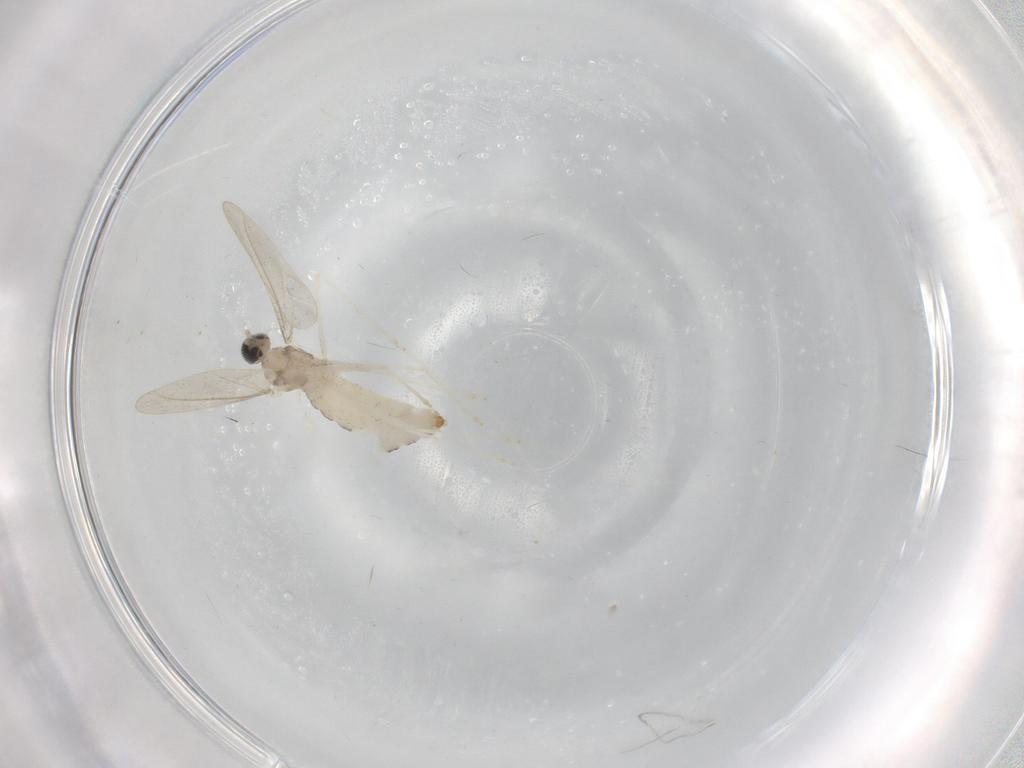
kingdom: Animalia
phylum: Arthropoda
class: Insecta
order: Diptera
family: Cecidomyiidae
